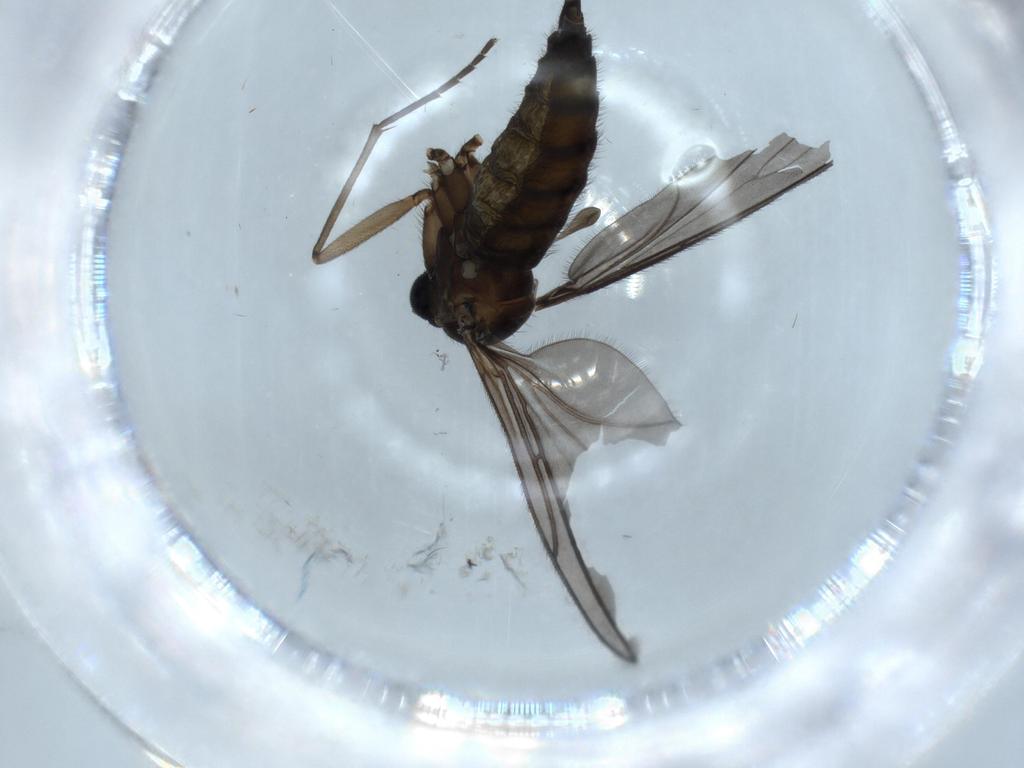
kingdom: Animalia
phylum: Arthropoda
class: Insecta
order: Diptera
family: Sciaridae
